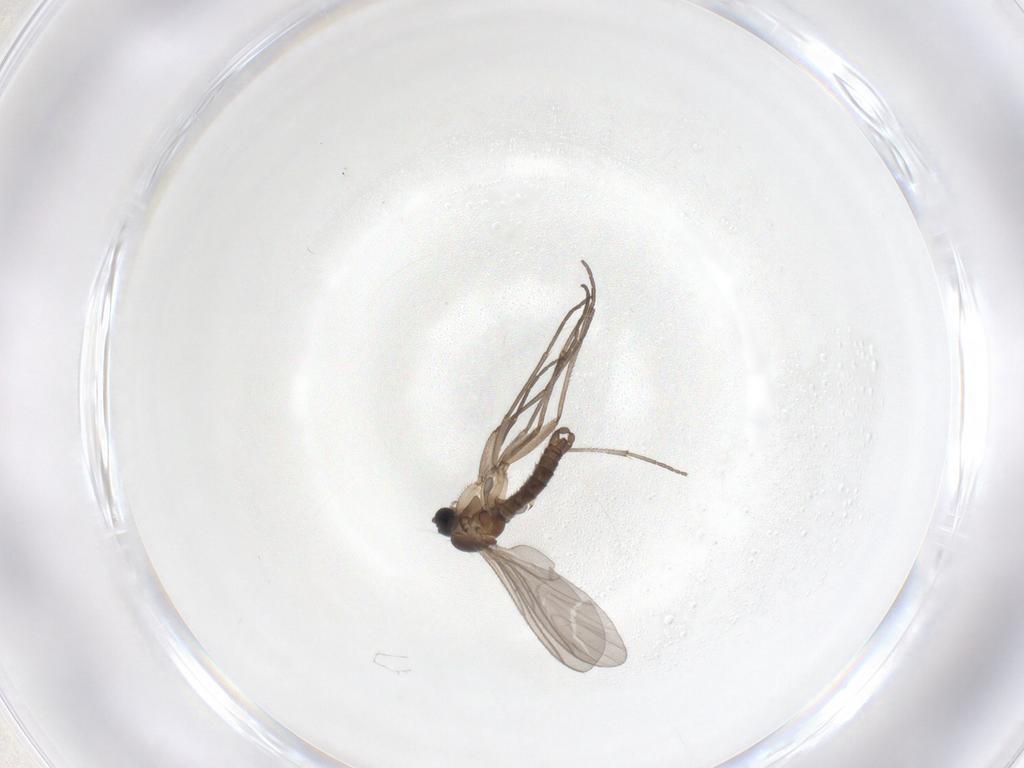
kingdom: Animalia
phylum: Arthropoda
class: Insecta
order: Diptera
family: Sciaridae
